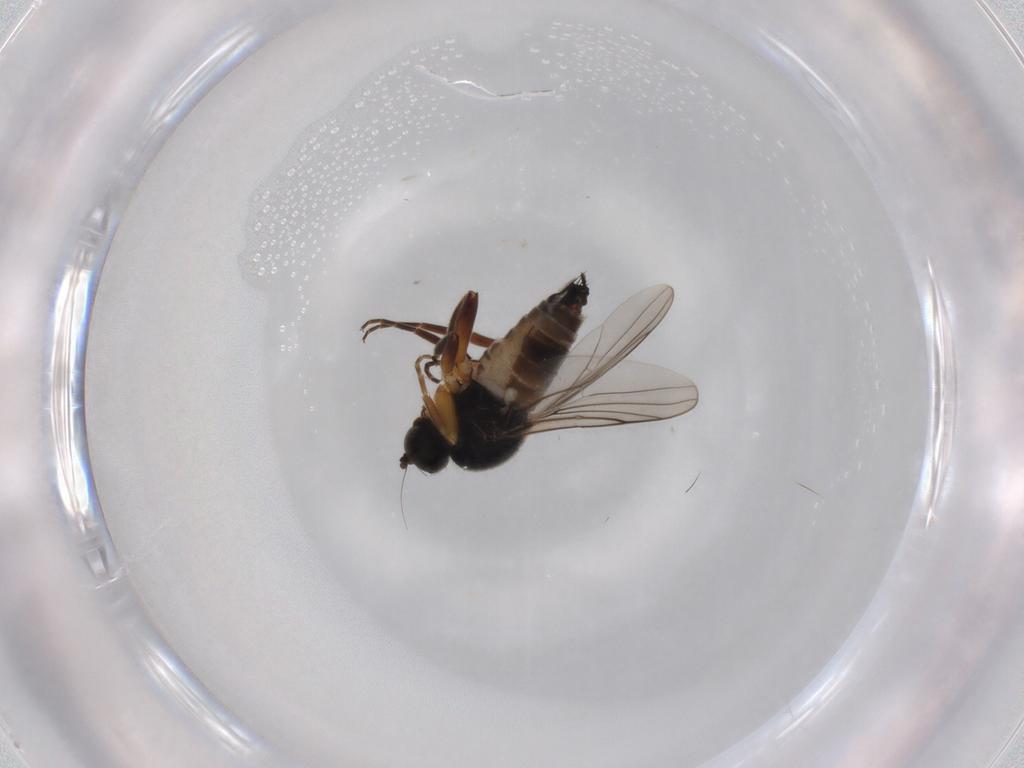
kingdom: Animalia
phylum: Arthropoda
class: Insecta
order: Diptera
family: Hybotidae
